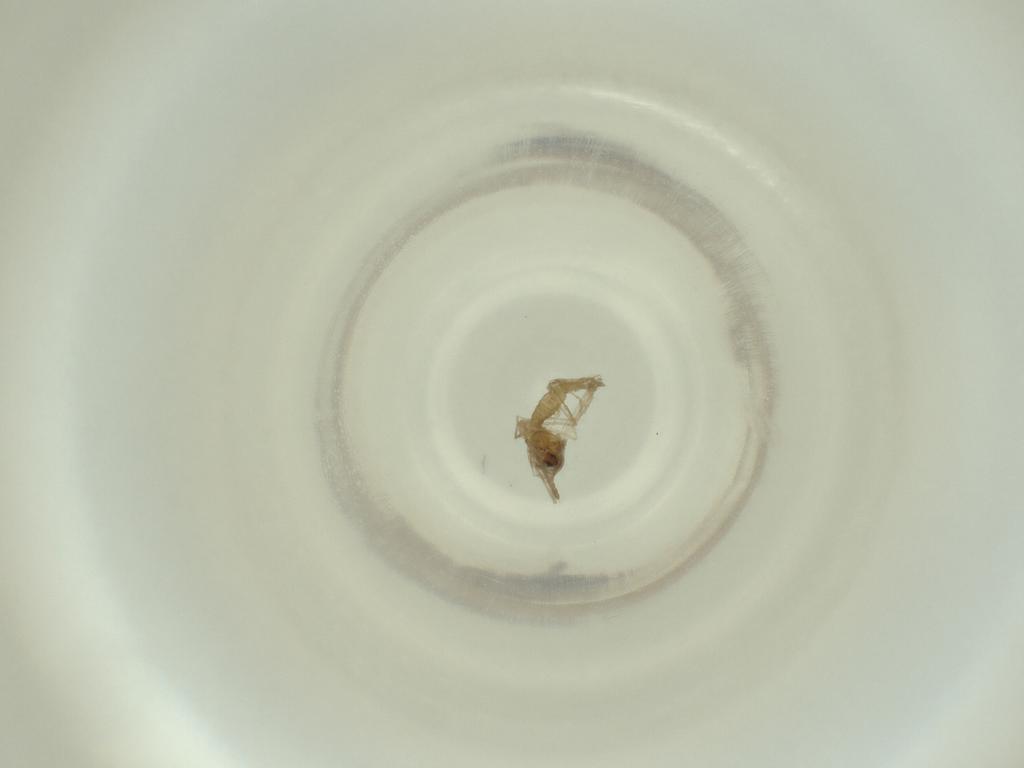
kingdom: Animalia
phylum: Arthropoda
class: Insecta
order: Diptera
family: Cecidomyiidae
